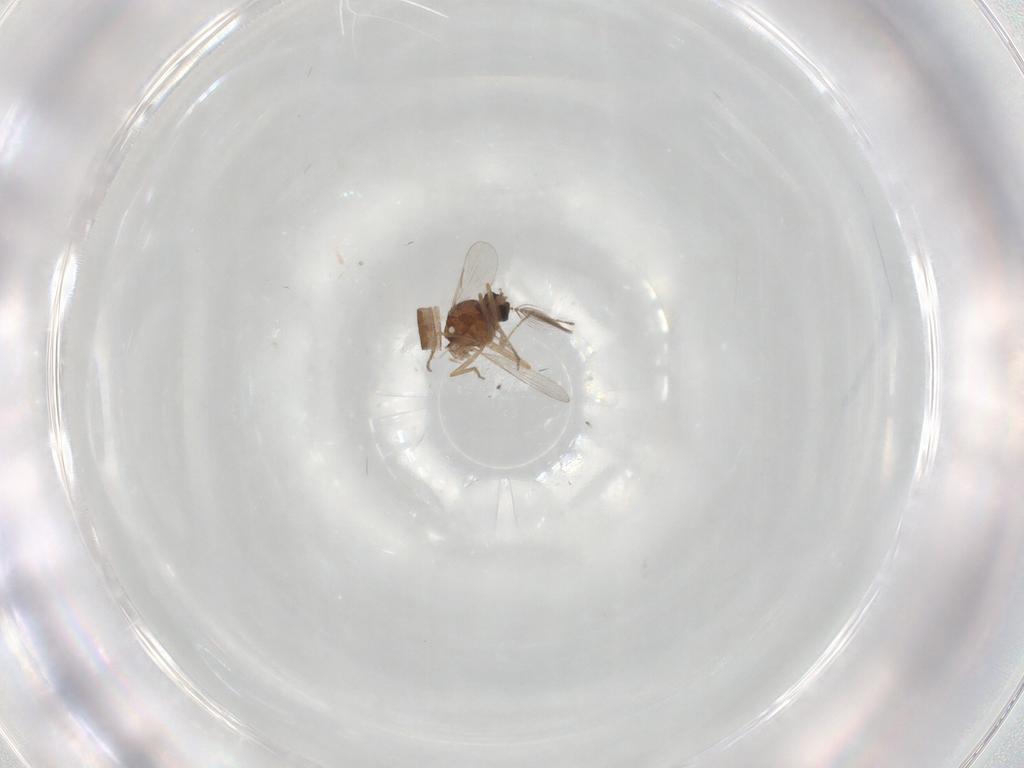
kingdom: Animalia
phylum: Arthropoda
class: Insecta
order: Diptera
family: Ceratopogonidae
